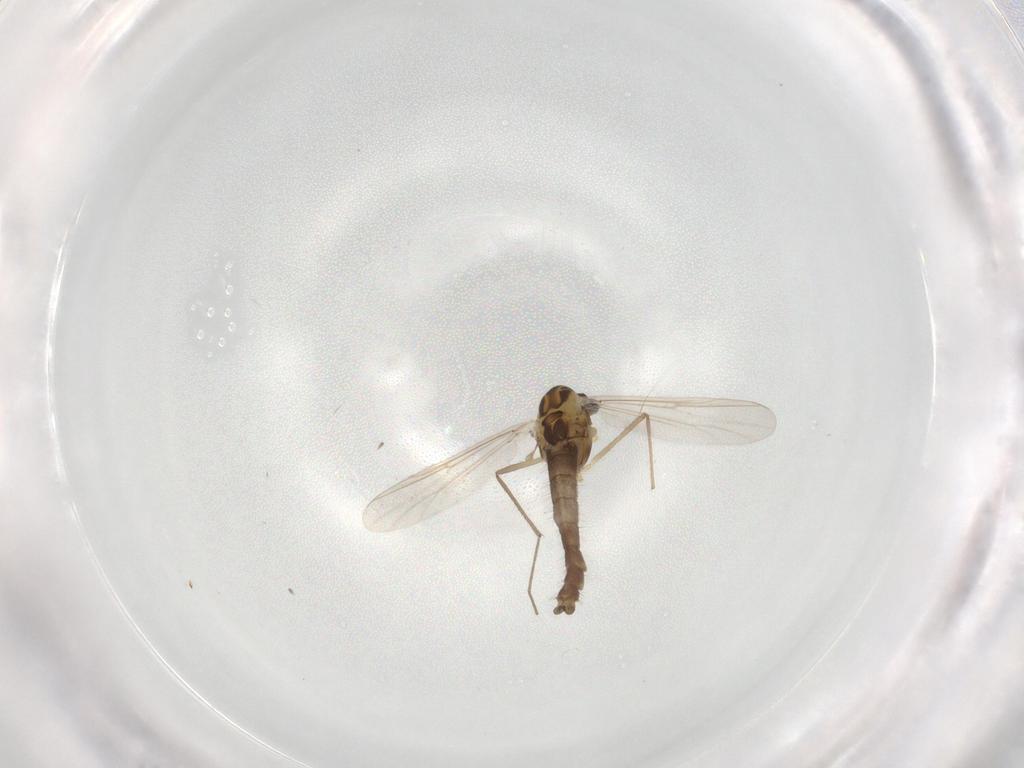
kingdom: Animalia
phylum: Arthropoda
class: Insecta
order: Diptera
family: Chironomidae
